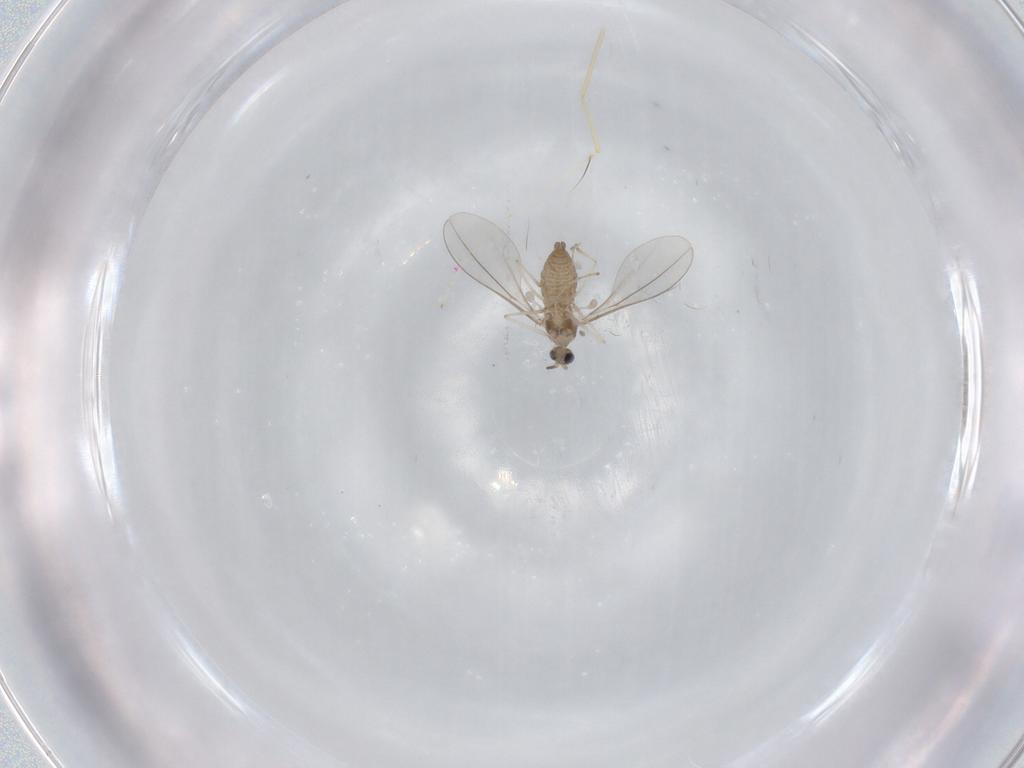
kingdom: Animalia
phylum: Arthropoda
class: Insecta
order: Diptera
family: Cecidomyiidae
